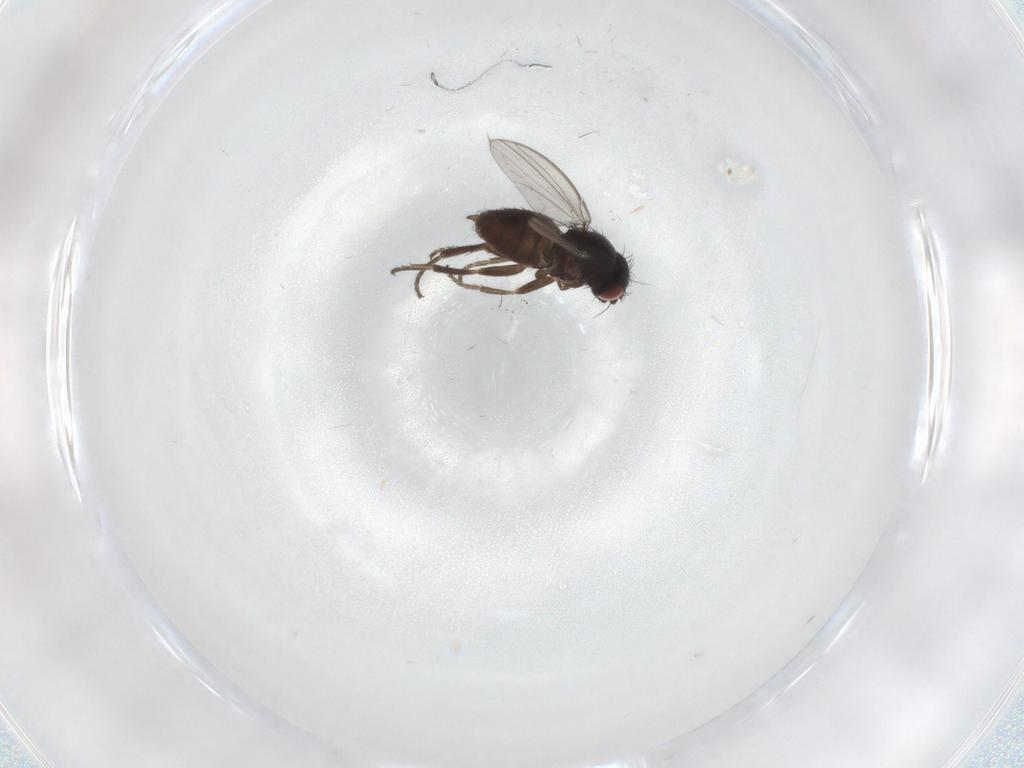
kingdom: Animalia
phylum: Arthropoda
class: Insecta
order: Diptera
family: Milichiidae
